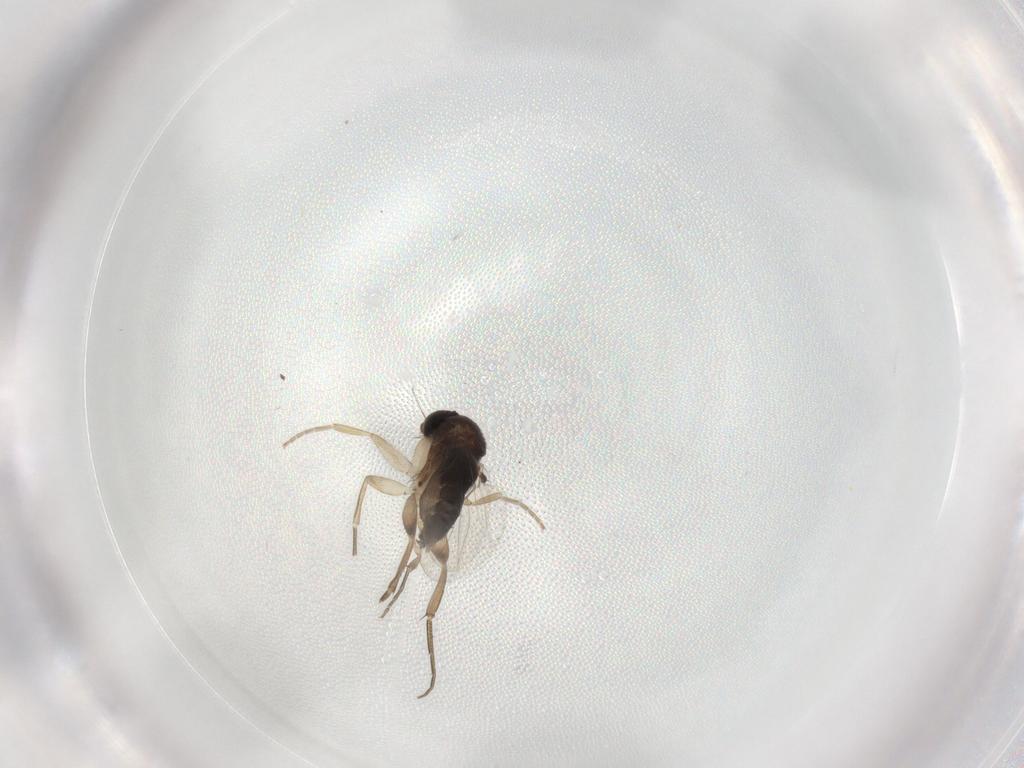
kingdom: Animalia
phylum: Arthropoda
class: Insecta
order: Diptera
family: Phoridae
